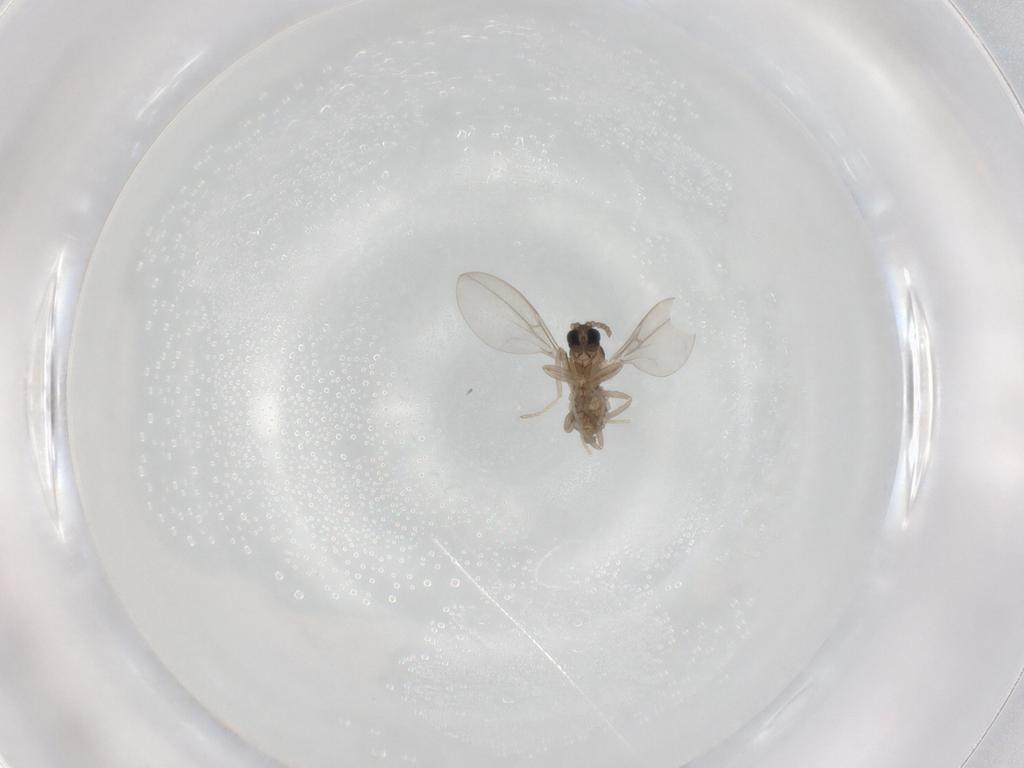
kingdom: Animalia
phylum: Arthropoda
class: Insecta
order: Diptera
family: Cecidomyiidae
